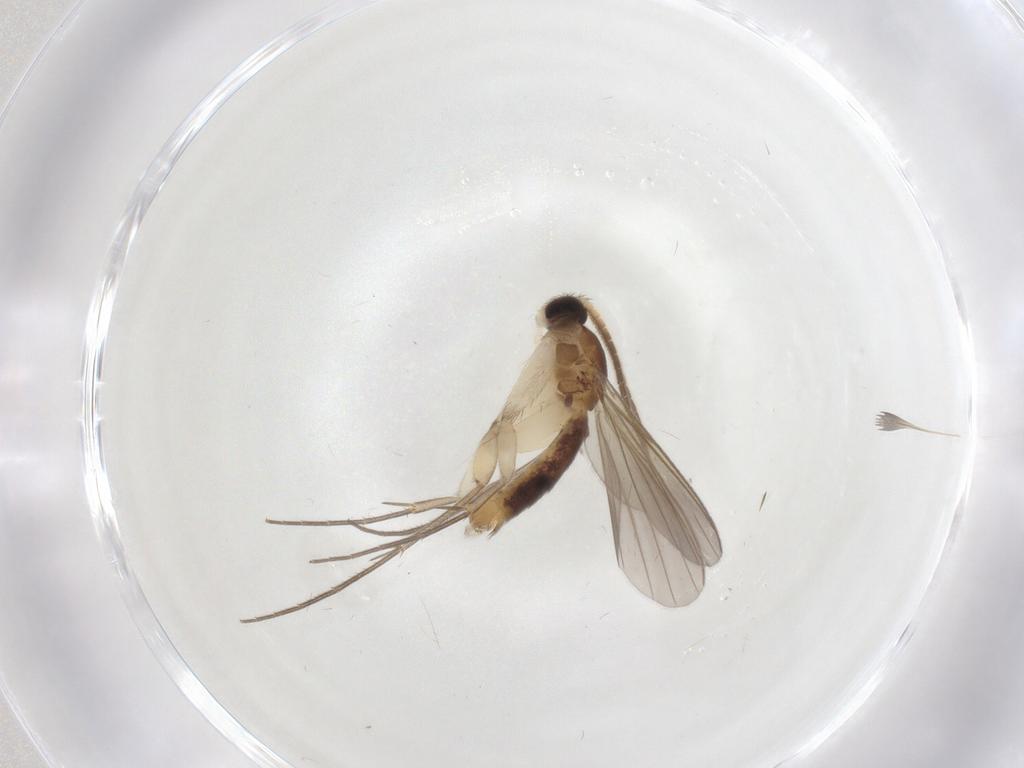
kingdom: Animalia
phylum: Arthropoda
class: Insecta
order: Diptera
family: Mycetophilidae
